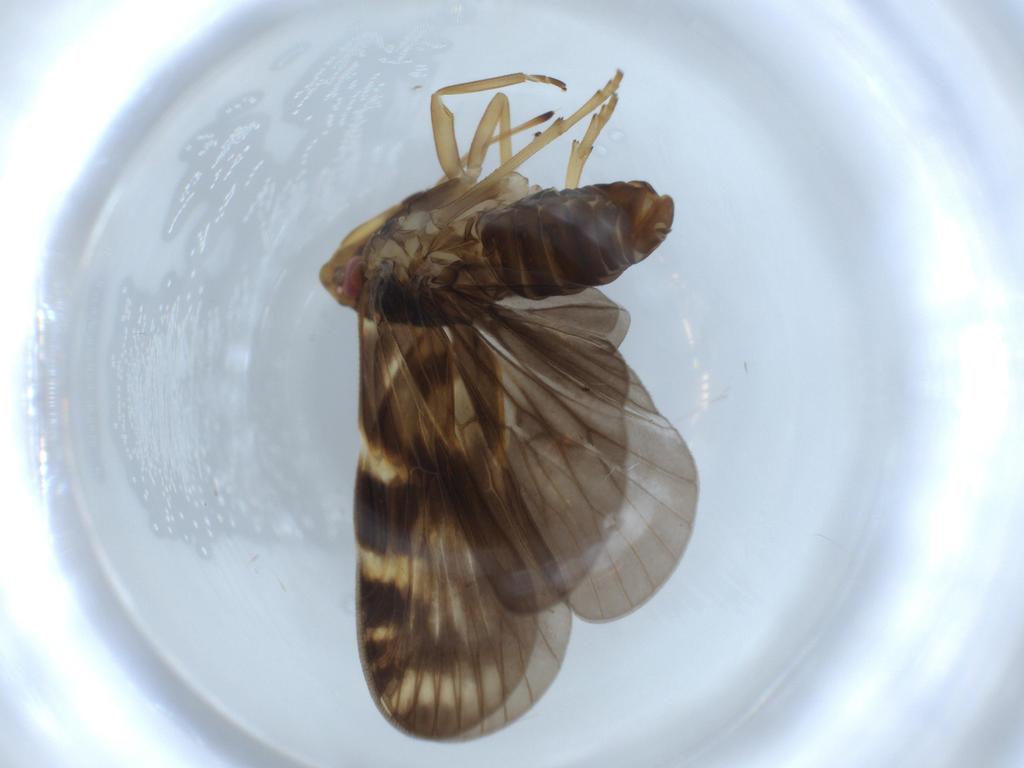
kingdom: Animalia
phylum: Arthropoda
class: Insecta
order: Hemiptera
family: Cixiidae
